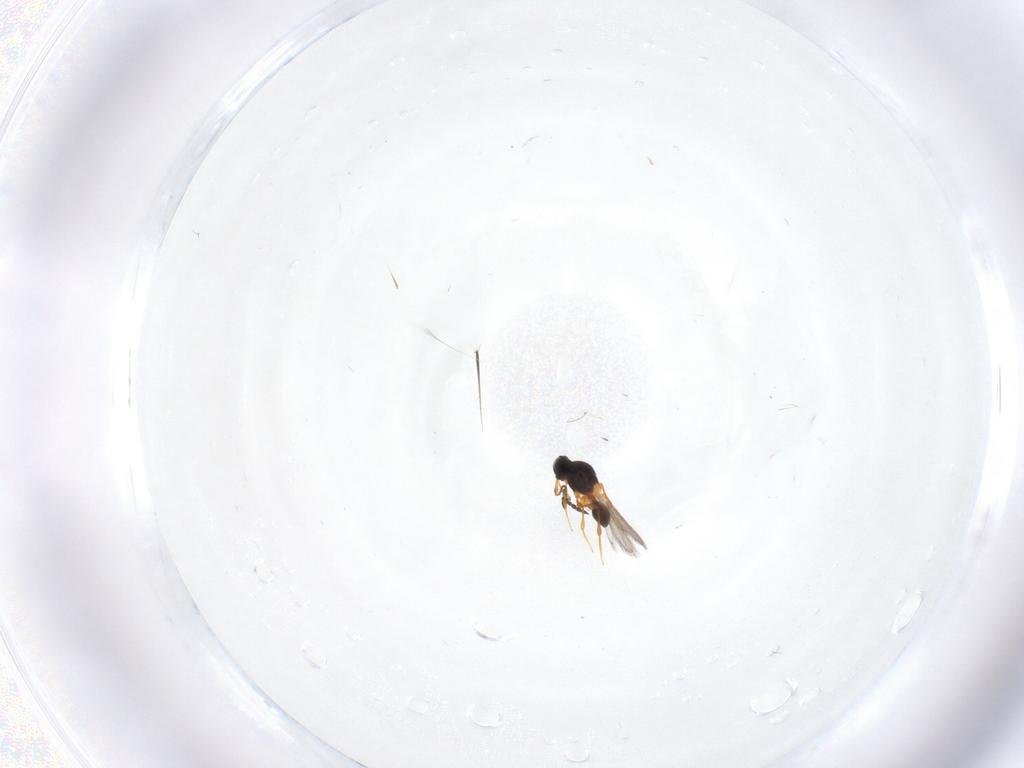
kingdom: Animalia
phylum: Arthropoda
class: Insecta
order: Hymenoptera
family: Platygastridae
